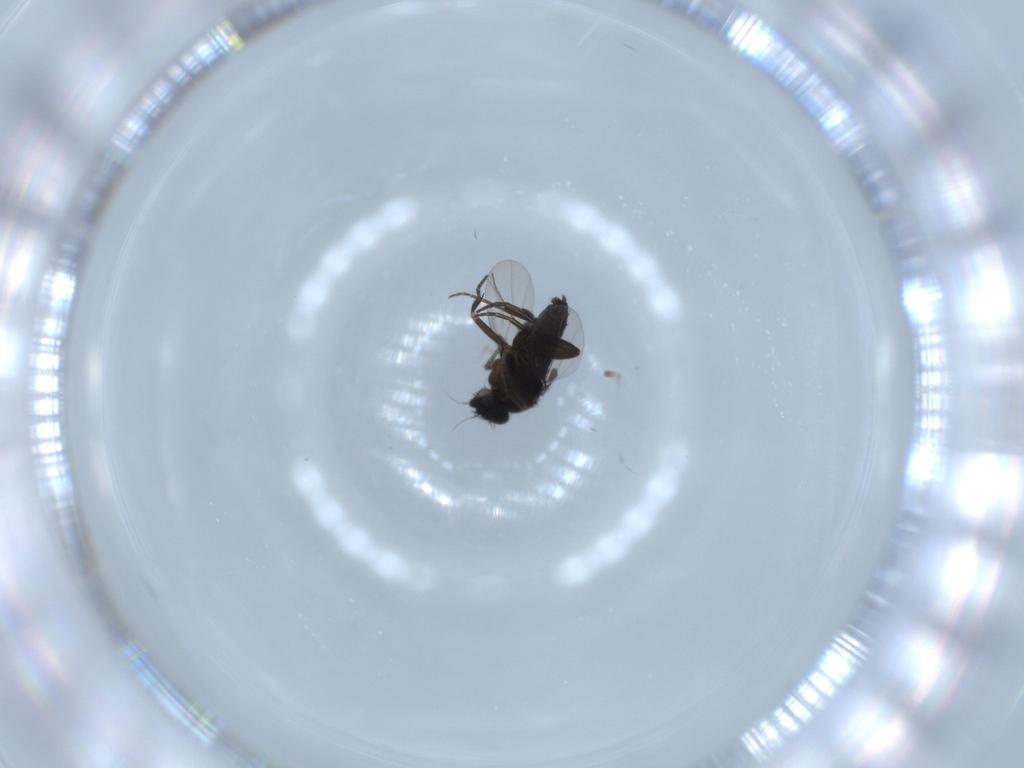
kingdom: Animalia
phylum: Arthropoda
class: Insecta
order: Diptera
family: Phoridae
